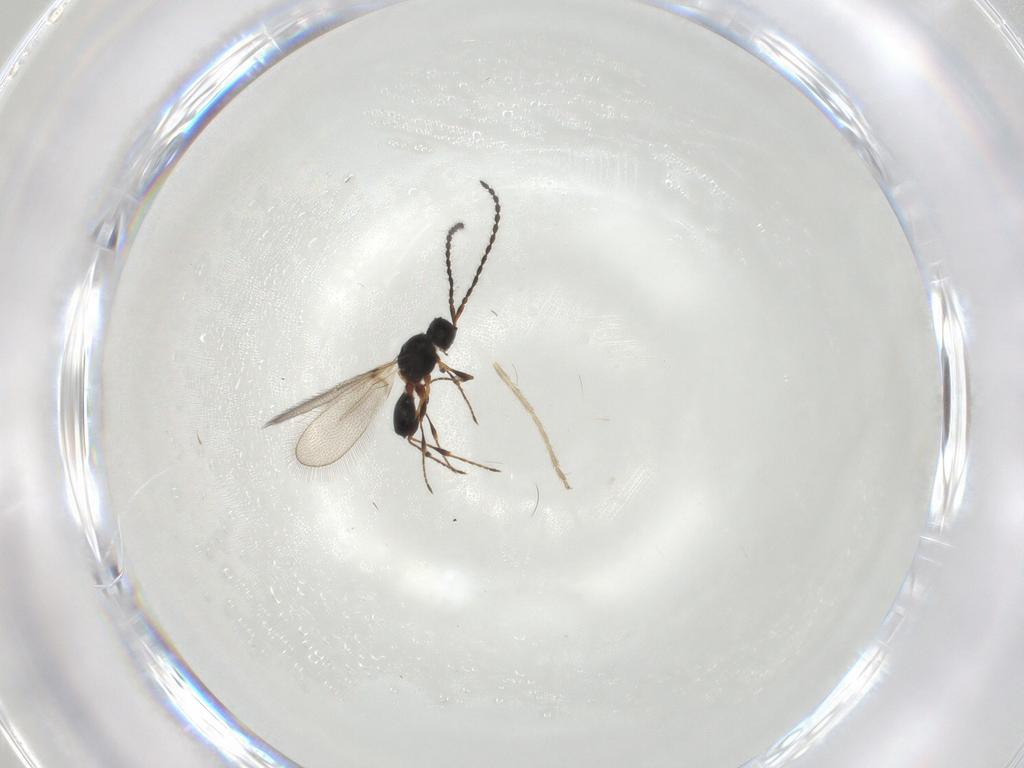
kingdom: Animalia
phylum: Arthropoda
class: Insecta
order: Hymenoptera
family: Diapriidae
